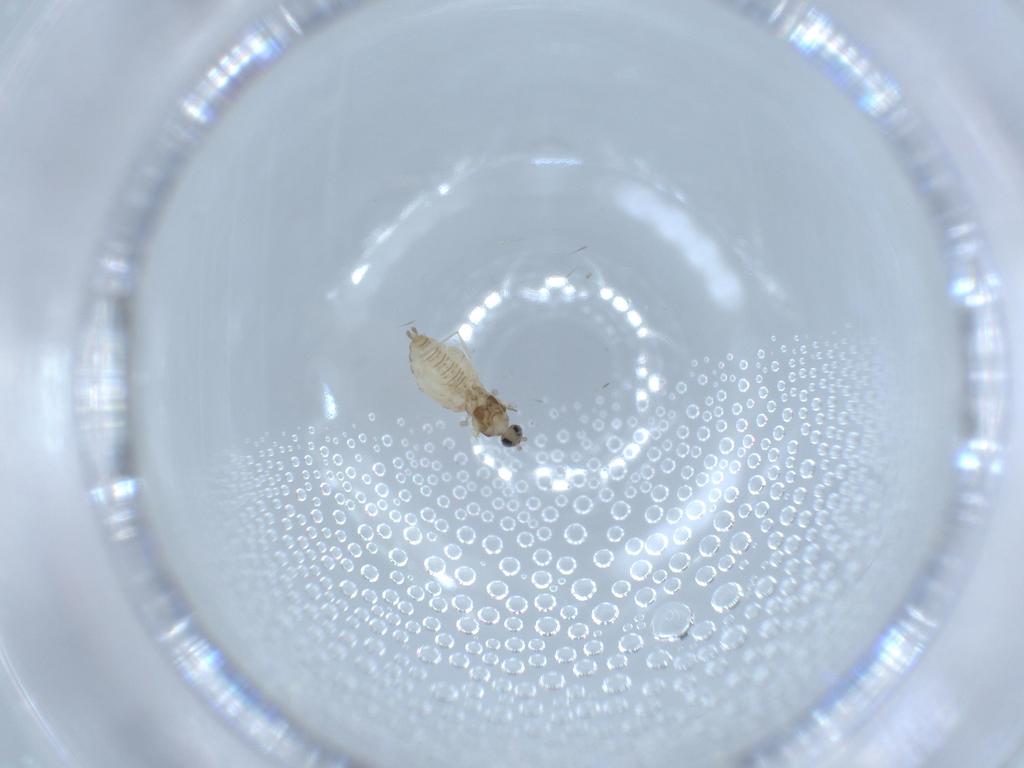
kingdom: Animalia
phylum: Arthropoda
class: Insecta
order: Diptera
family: Cecidomyiidae
